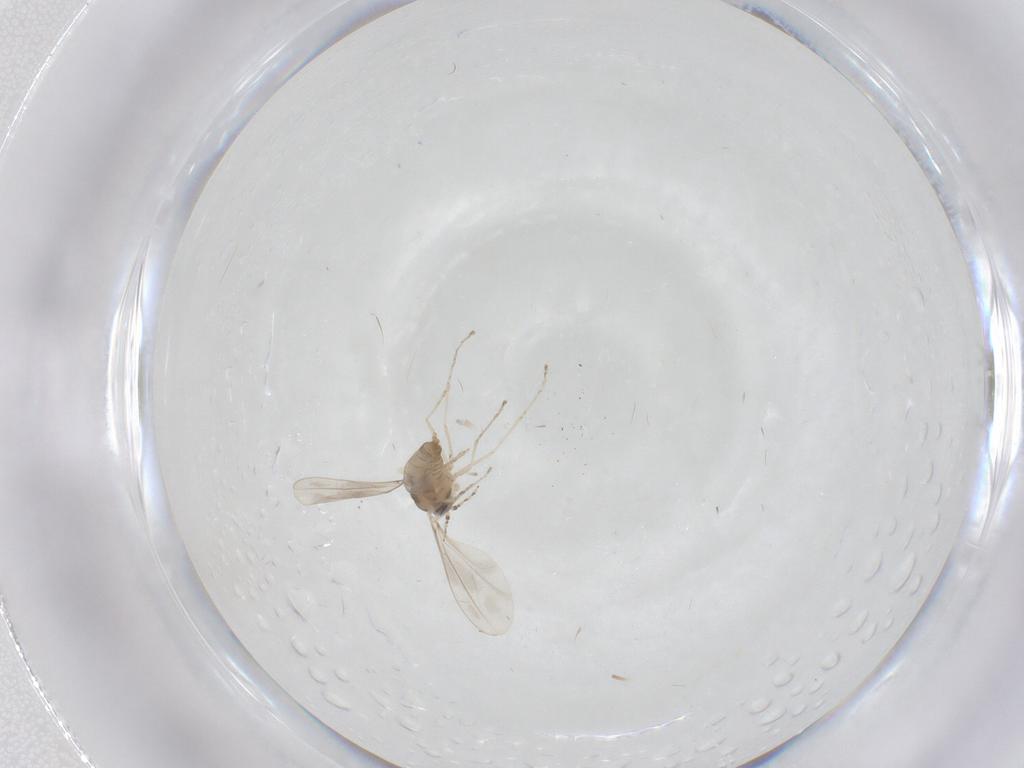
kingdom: Animalia
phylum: Arthropoda
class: Insecta
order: Diptera
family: Cecidomyiidae
